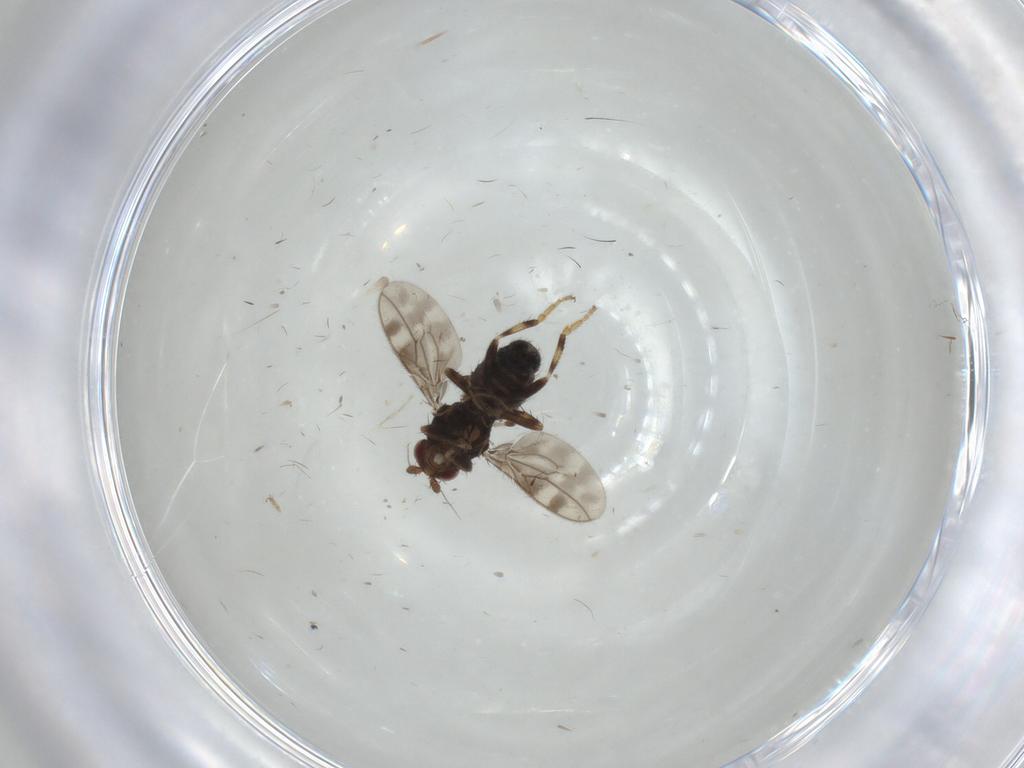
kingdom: Animalia
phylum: Arthropoda
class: Insecta
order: Diptera
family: Sphaeroceridae
